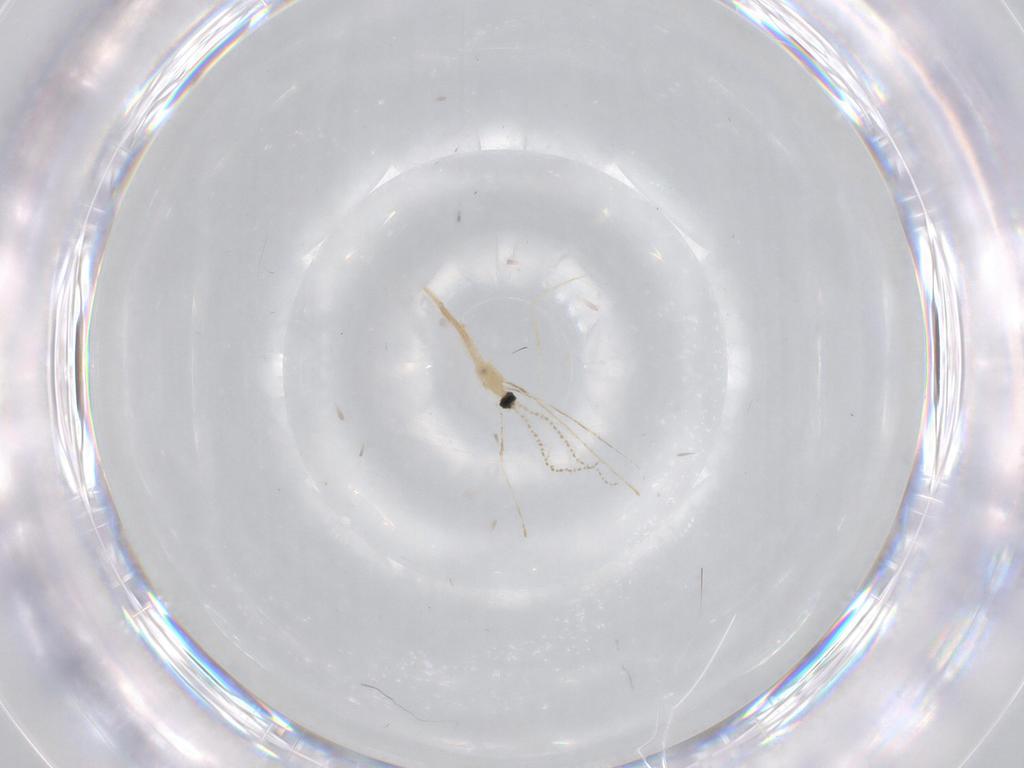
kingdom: Animalia
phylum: Arthropoda
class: Insecta
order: Diptera
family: Cecidomyiidae
